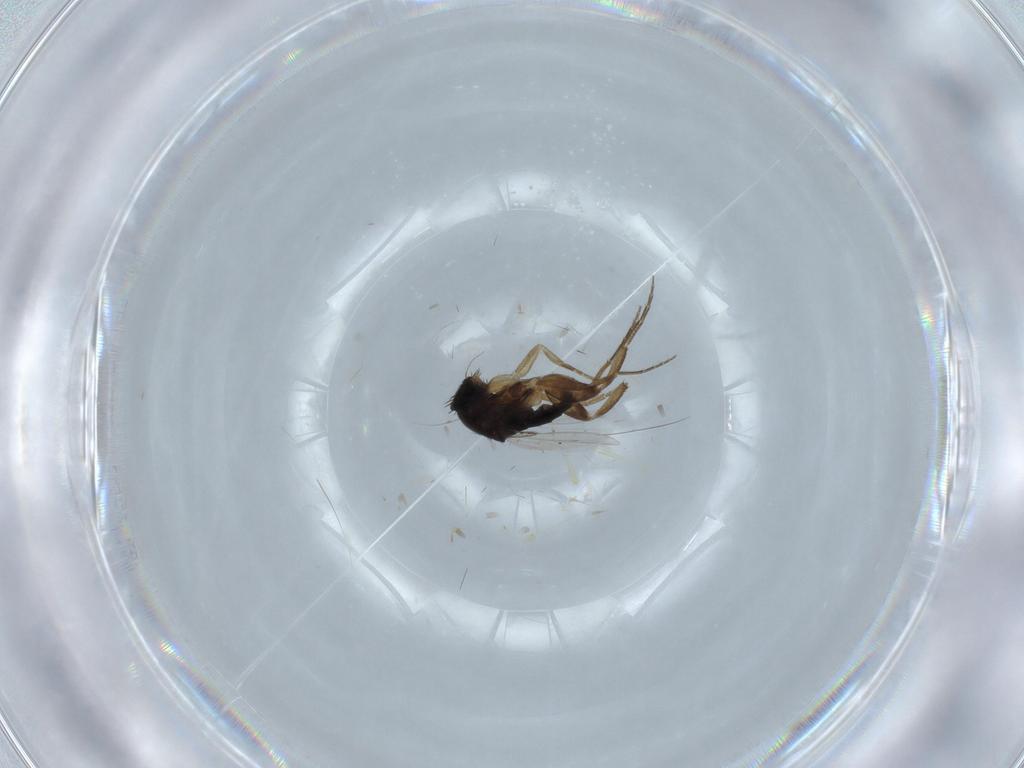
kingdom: Animalia
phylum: Arthropoda
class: Insecta
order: Diptera
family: Phoridae
